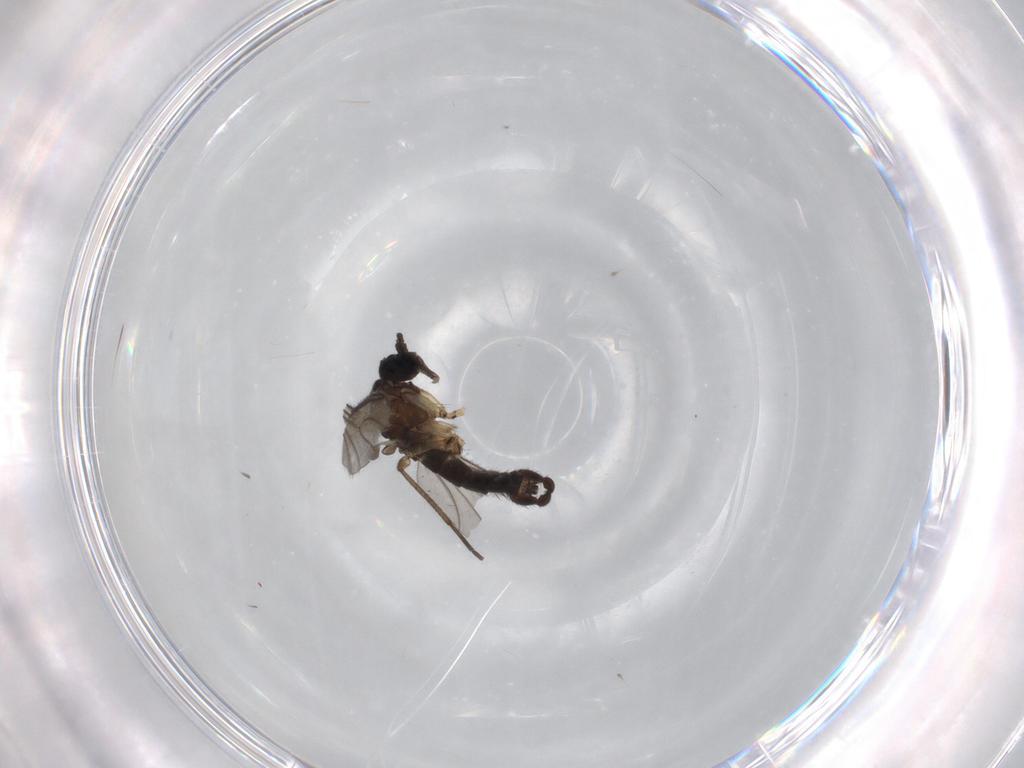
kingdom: Animalia
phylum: Arthropoda
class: Insecta
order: Diptera
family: Sciaridae
